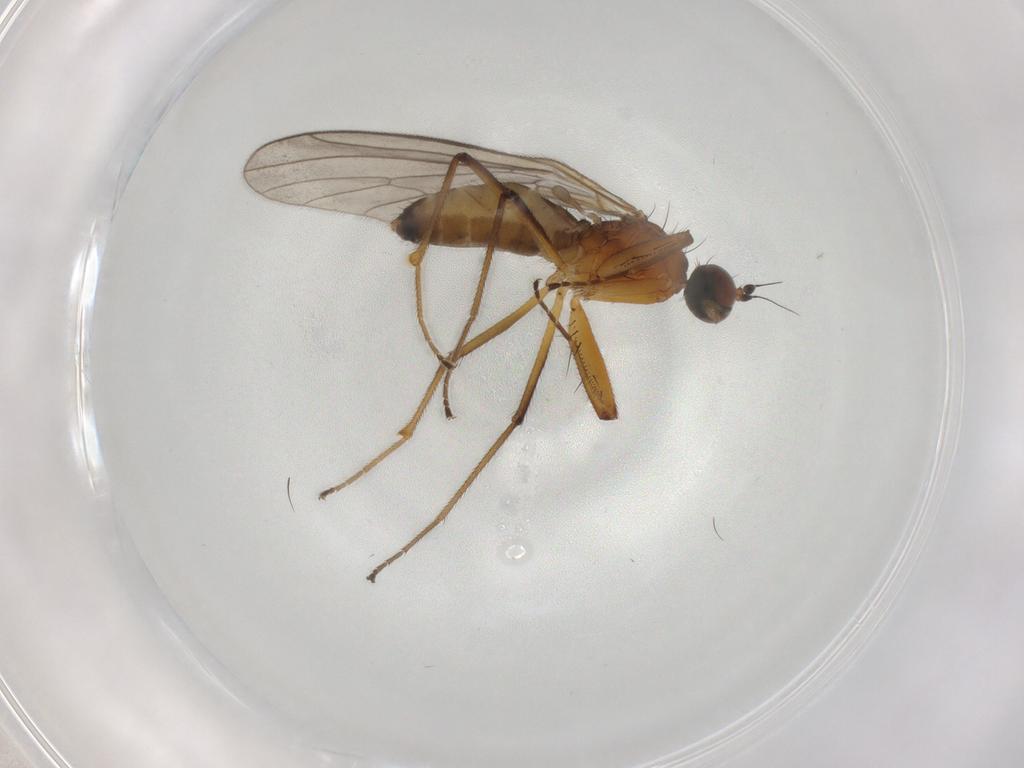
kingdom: Animalia
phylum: Arthropoda
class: Insecta
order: Diptera
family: Empididae
